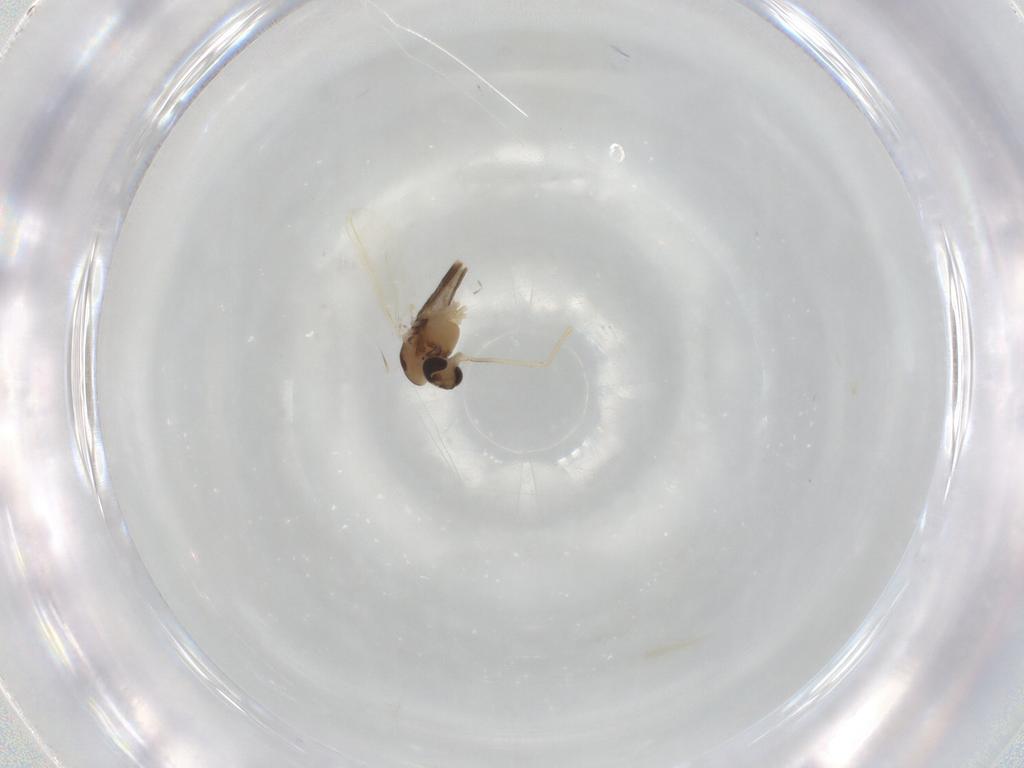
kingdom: Animalia
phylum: Arthropoda
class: Insecta
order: Diptera
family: Chironomidae
